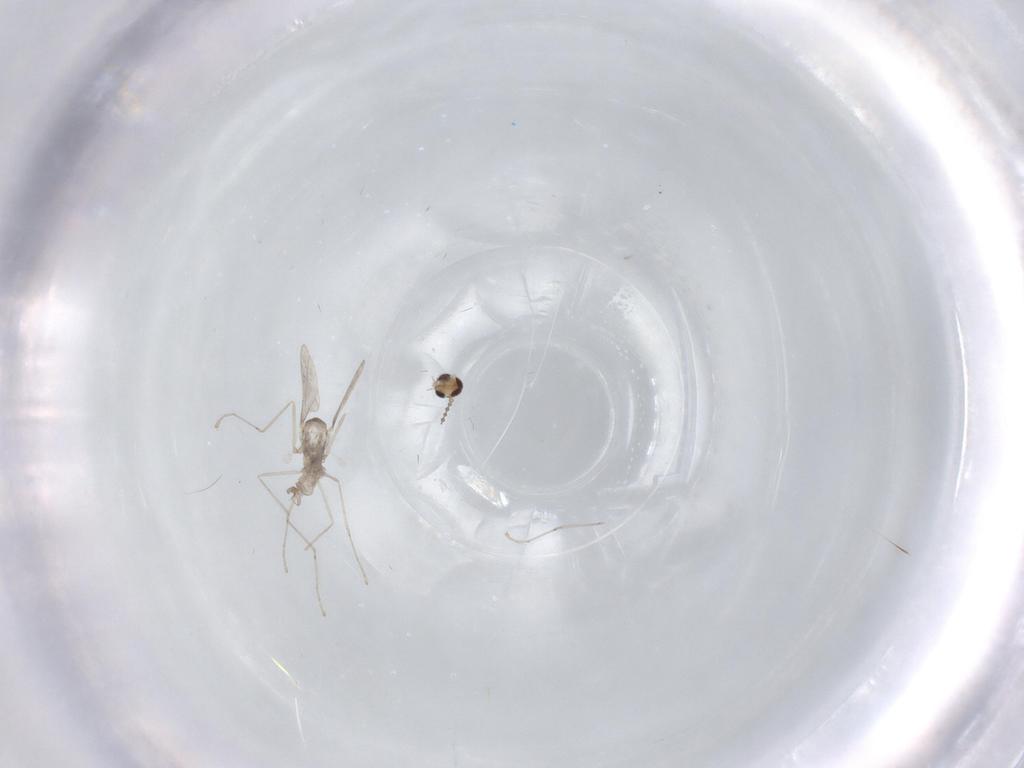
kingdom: Animalia
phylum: Arthropoda
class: Insecta
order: Diptera
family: Cecidomyiidae
